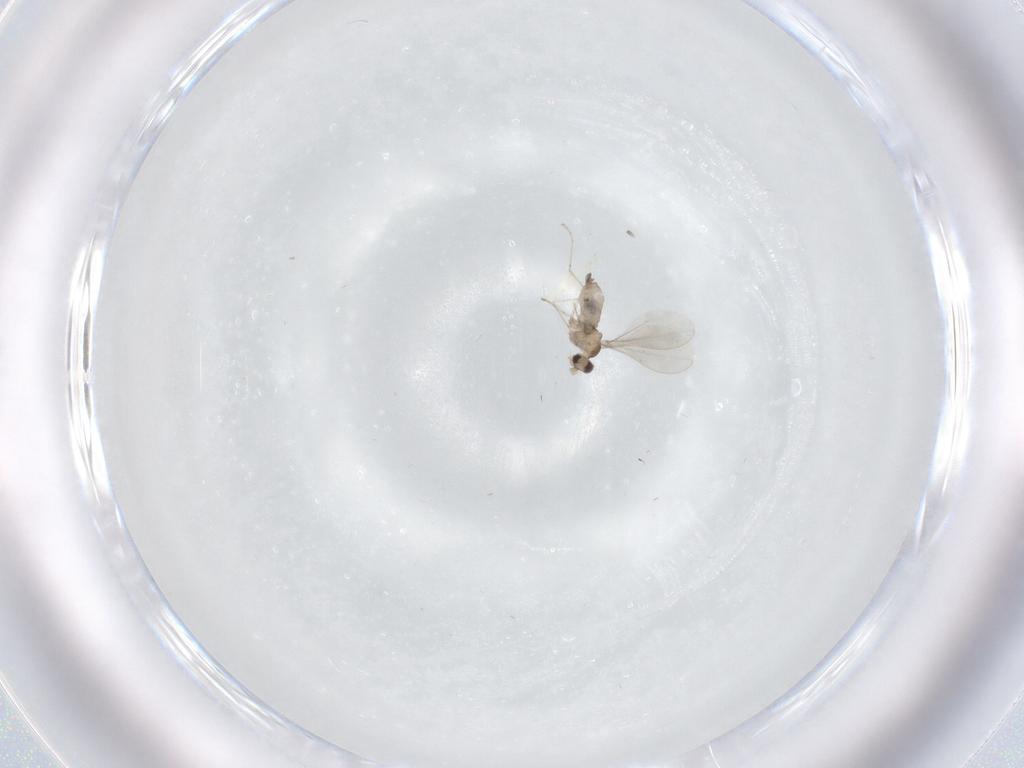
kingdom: Animalia
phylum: Arthropoda
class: Insecta
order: Diptera
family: Cecidomyiidae
